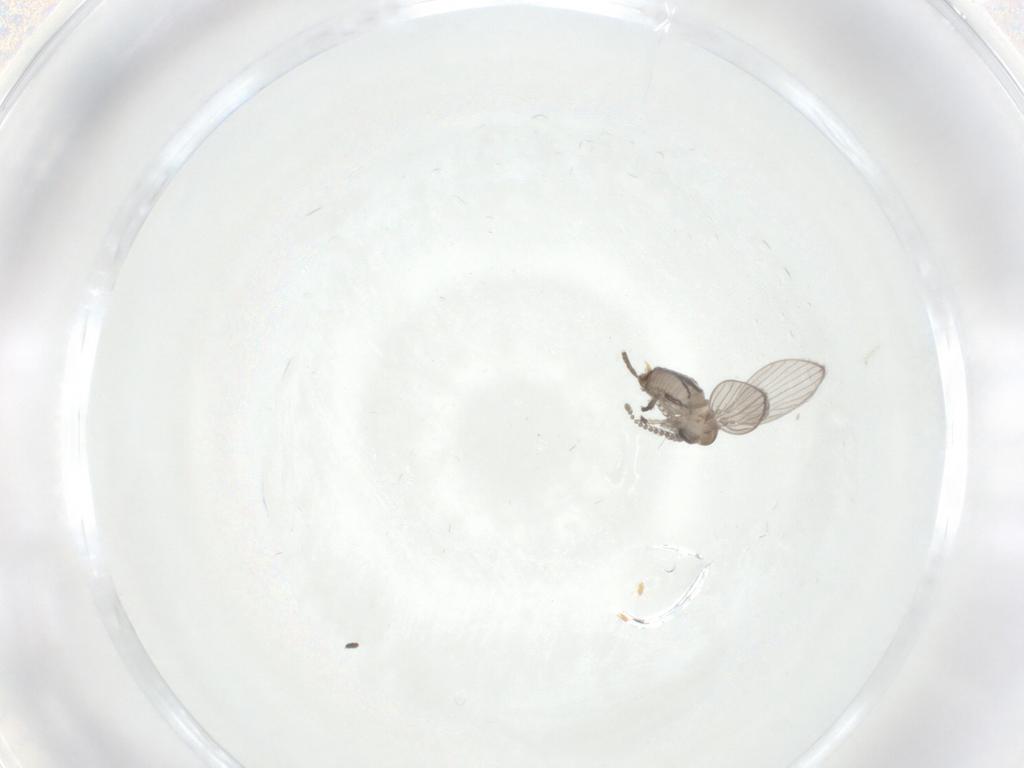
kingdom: Animalia
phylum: Arthropoda
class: Insecta
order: Diptera
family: Psychodidae
